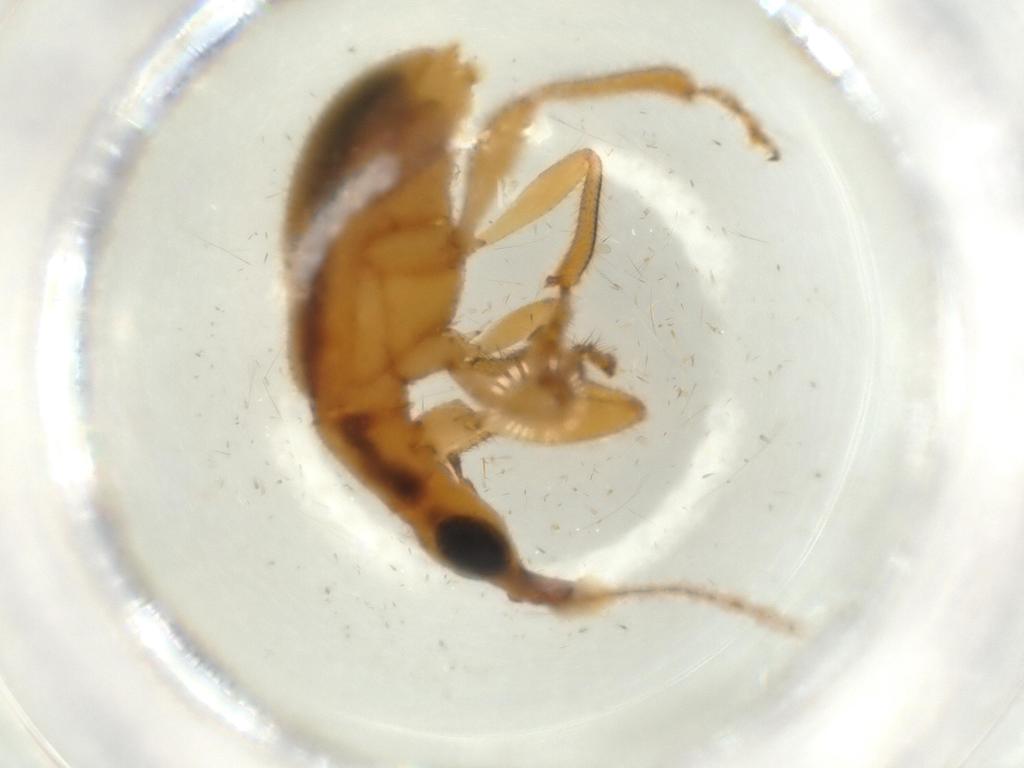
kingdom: Animalia
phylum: Arthropoda
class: Insecta
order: Coleoptera
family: Attelabidae
